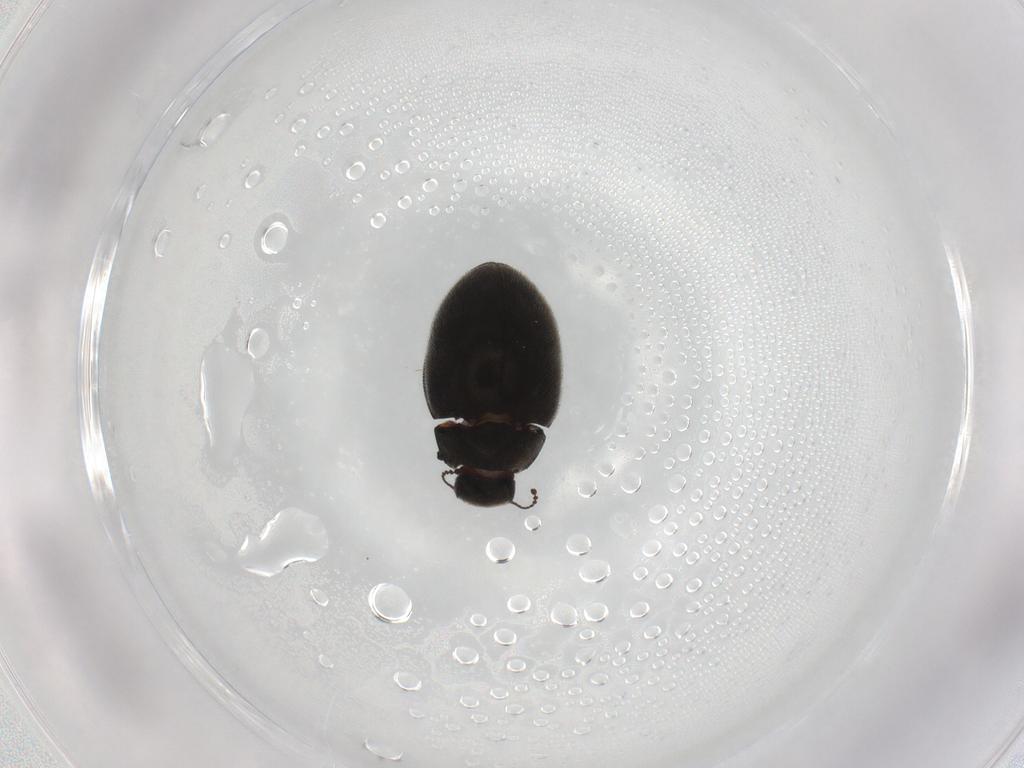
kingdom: Animalia
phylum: Arthropoda
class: Insecta
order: Coleoptera
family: Limnichidae
